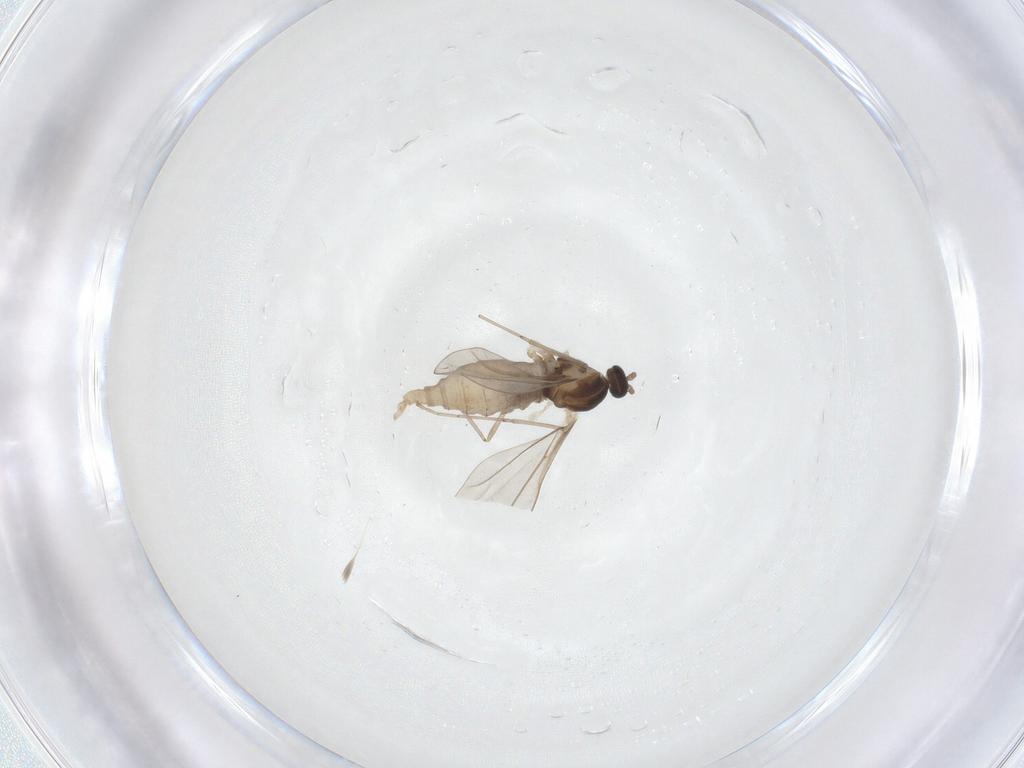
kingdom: Animalia
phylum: Arthropoda
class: Insecta
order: Diptera
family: Cecidomyiidae
